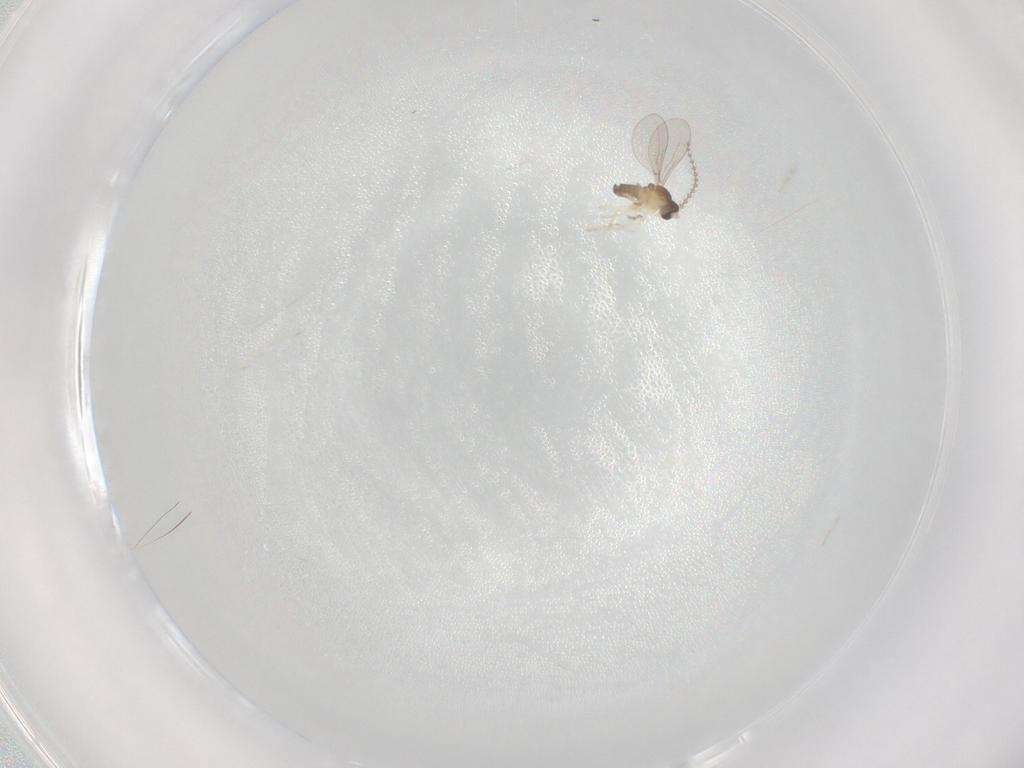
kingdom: Animalia
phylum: Arthropoda
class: Insecta
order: Diptera
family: Cecidomyiidae
